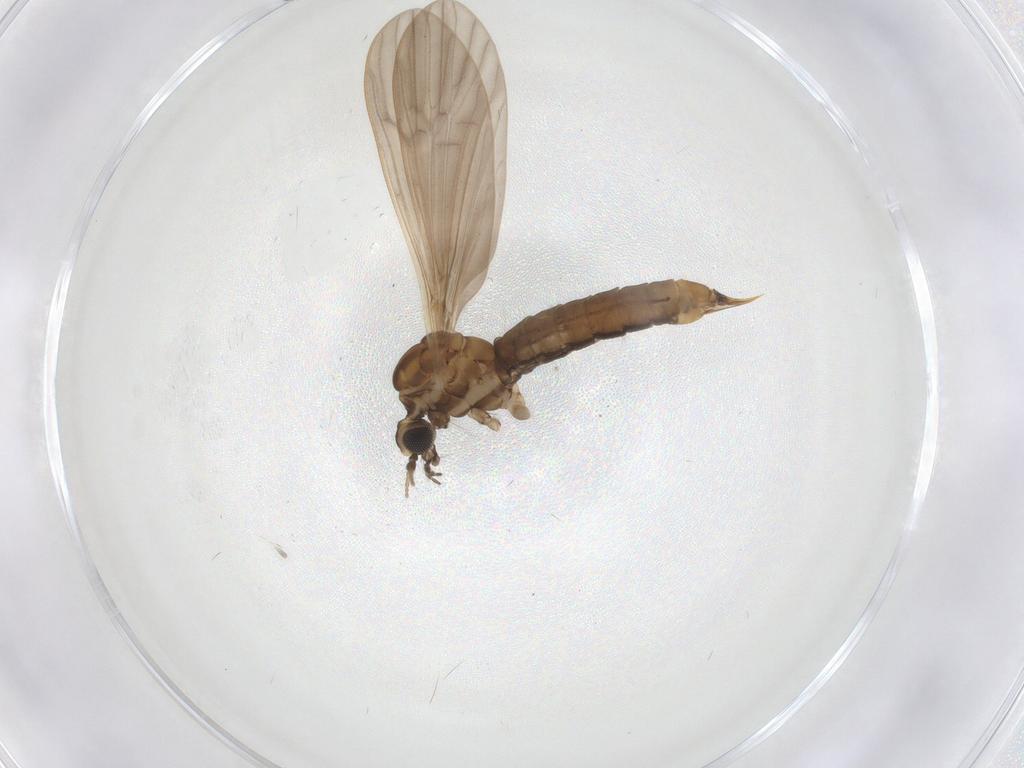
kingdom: Animalia
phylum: Arthropoda
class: Insecta
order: Diptera
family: Limoniidae
